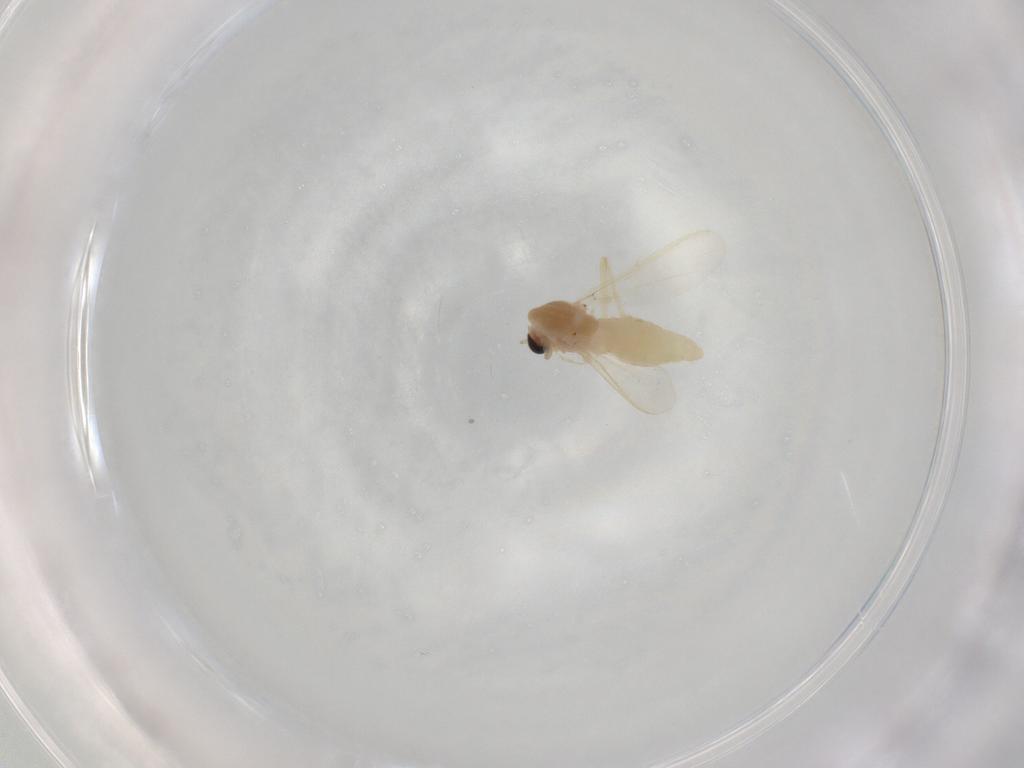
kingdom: Animalia
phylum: Arthropoda
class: Insecta
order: Diptera
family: Chironomidae
